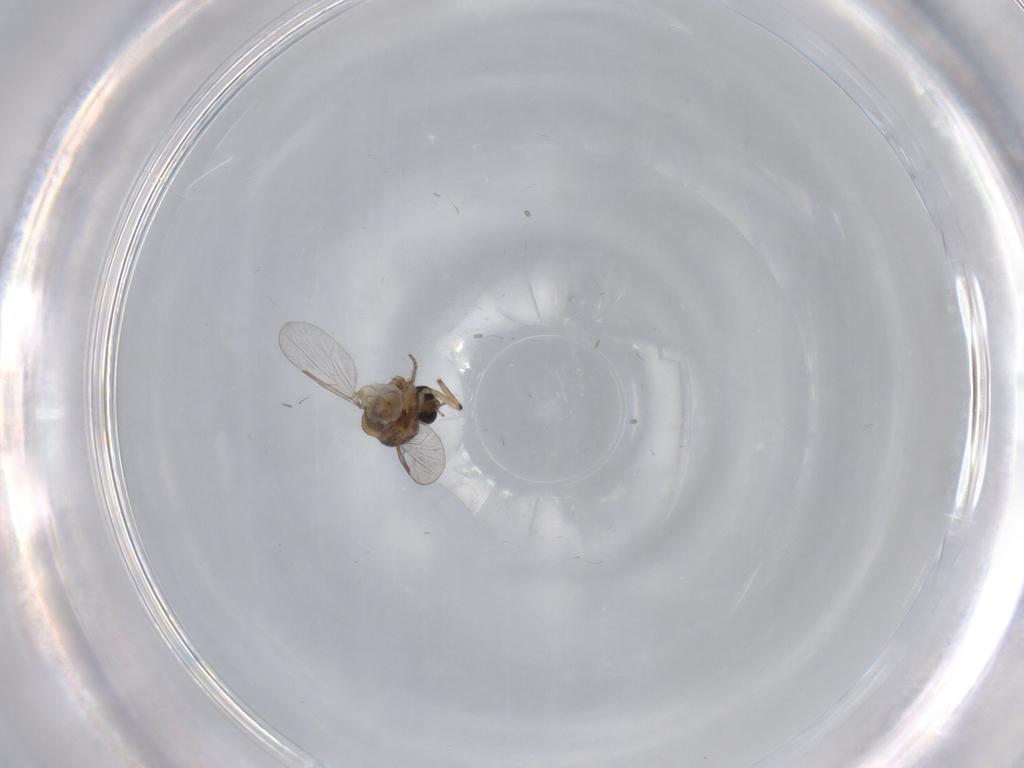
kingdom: Animalia
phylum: Arthropoda
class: Insecta
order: Diptera
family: Ceratopogonidae
